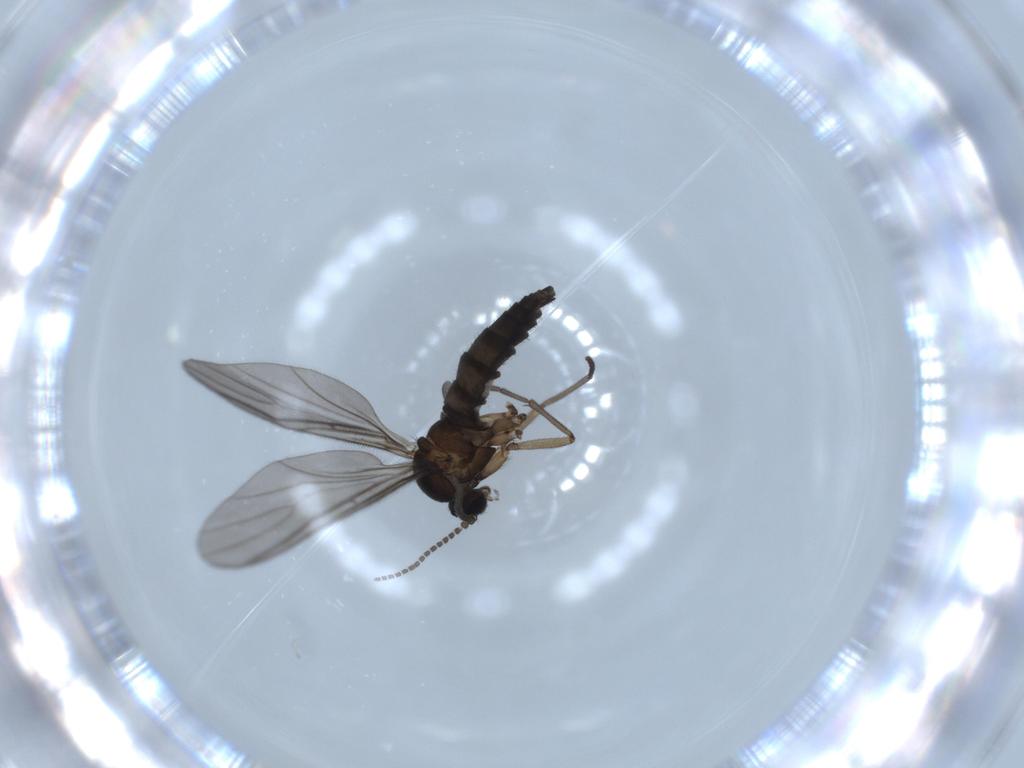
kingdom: Animalia
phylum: Arthropoda
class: Insecta
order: Diptera
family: Sciaridae
